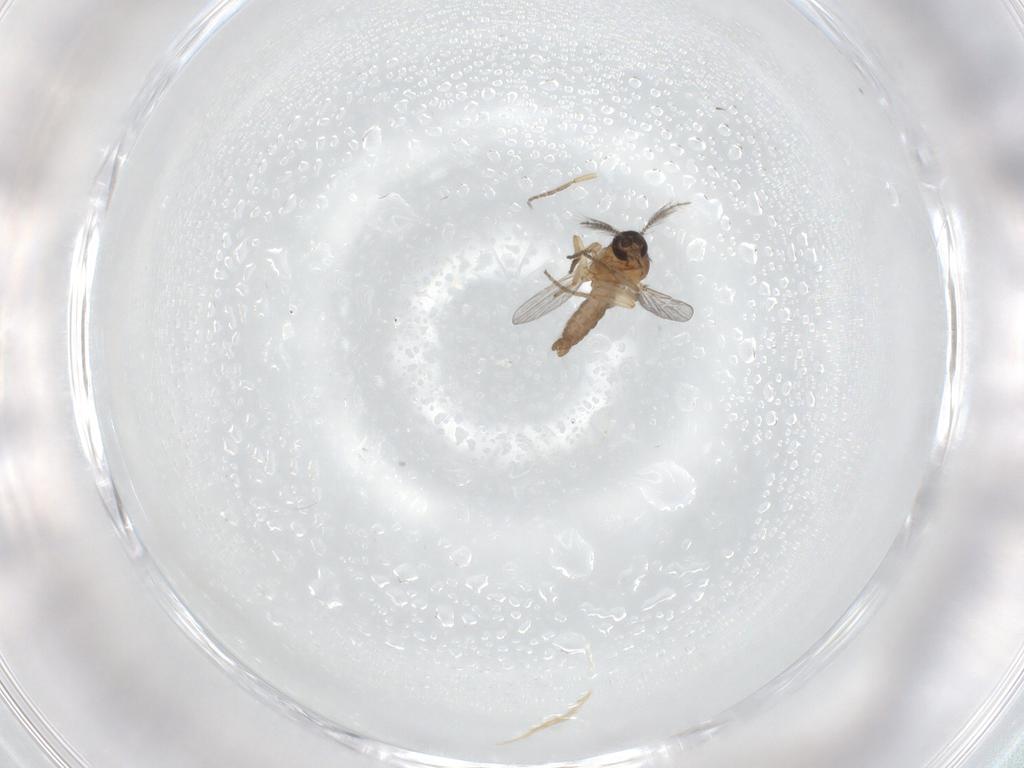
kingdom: Animalia
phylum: Arthropoda
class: Insecta
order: Diptera
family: Ceratopogonidae
